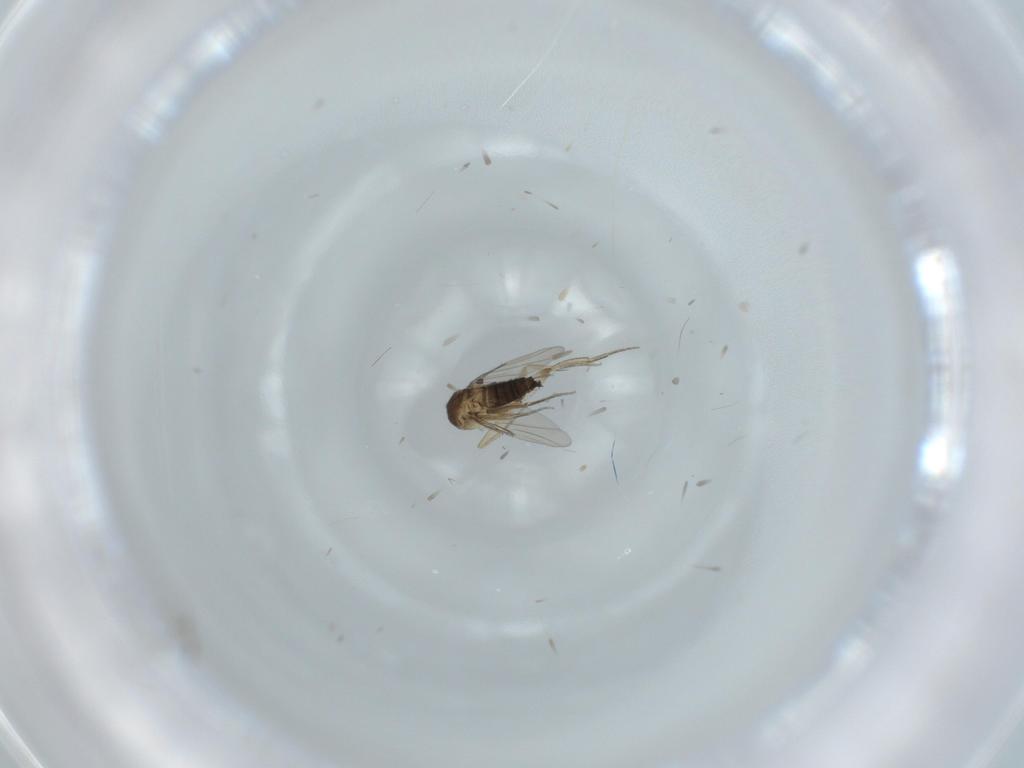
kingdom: Animalia
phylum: Arthropoda
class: Insecta
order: Diptera
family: Phoridae
